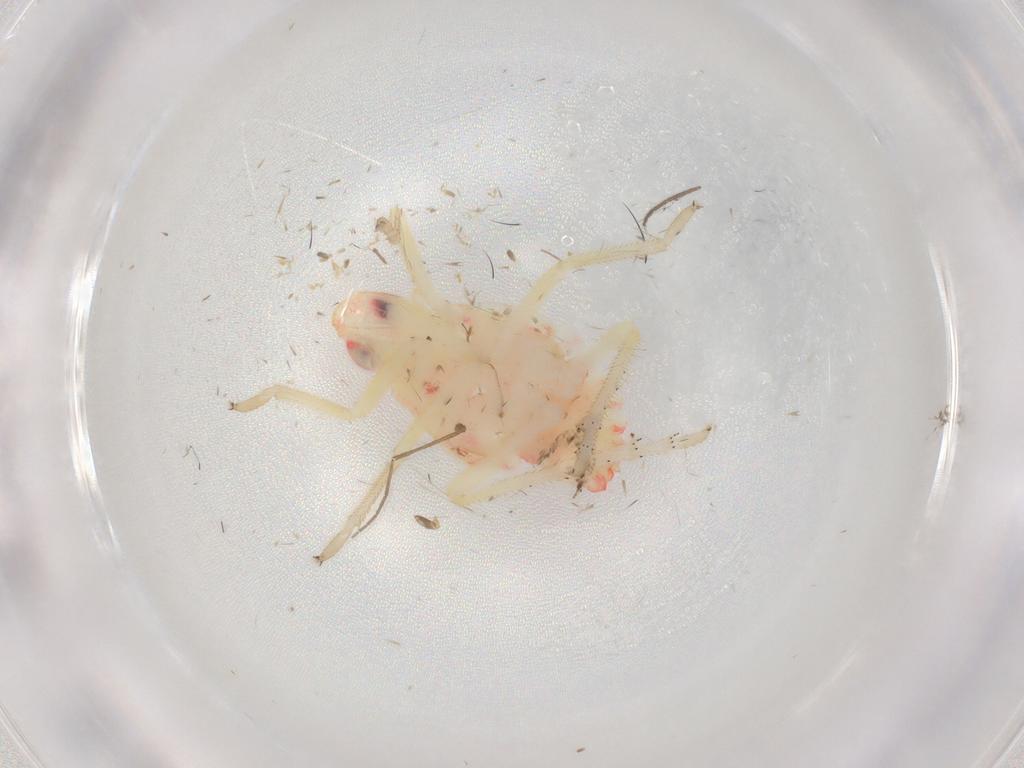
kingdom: Animalia
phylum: Arthropoda
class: Insecta
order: Hemiptera
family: Tropiduchidae
